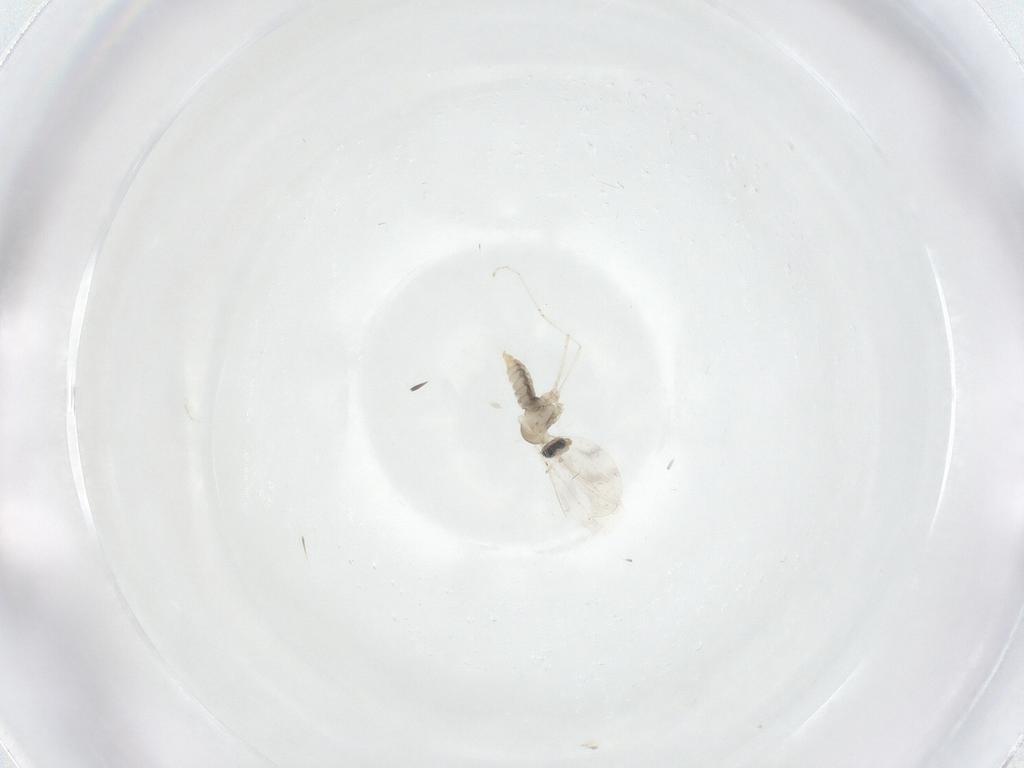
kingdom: Animalia
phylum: Arthropoda
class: Insecta
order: Diptera
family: Cecidomyiidae
